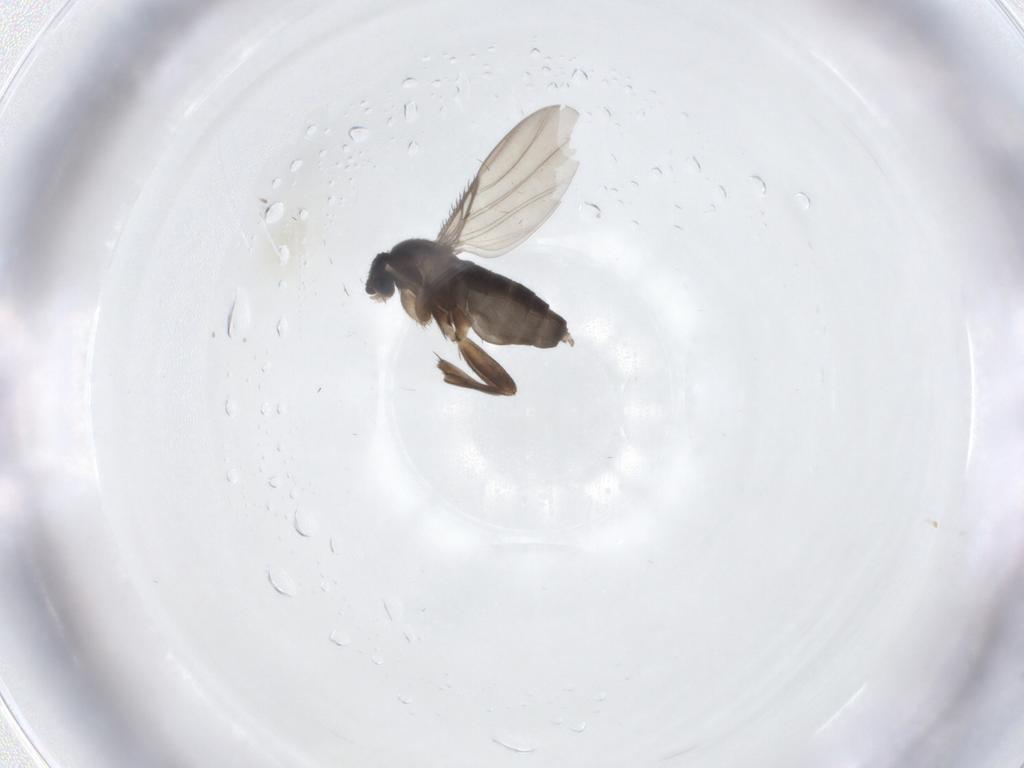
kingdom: Animalia
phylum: Arthropoda
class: Insecta
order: Diptera
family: Phoridae
